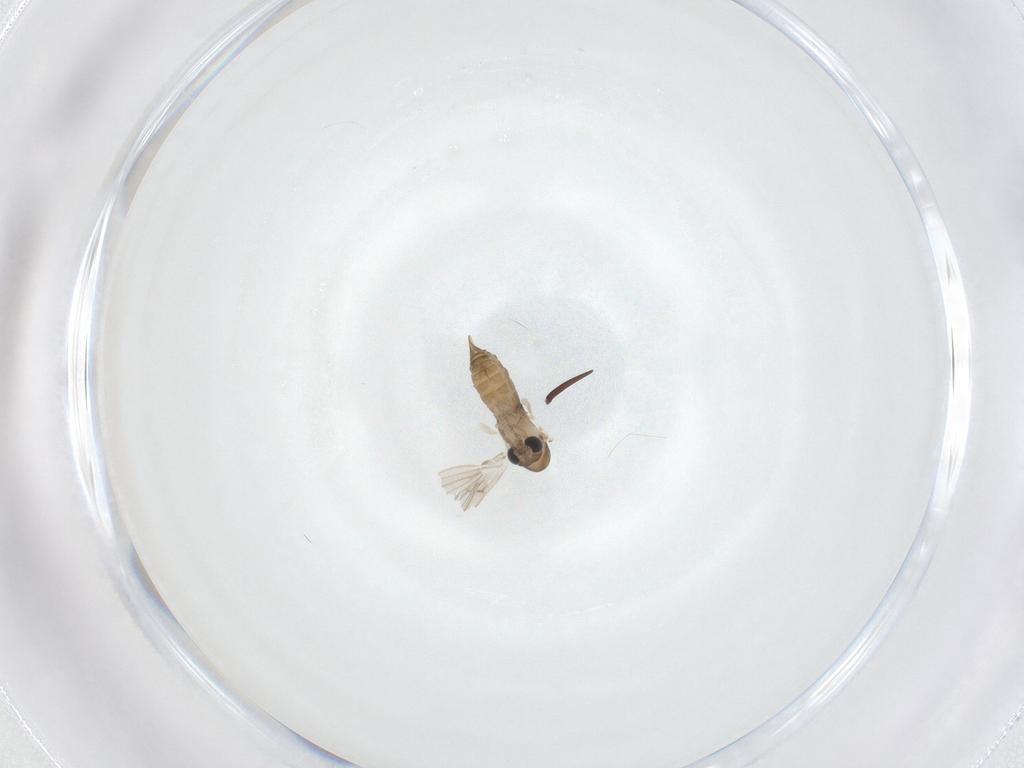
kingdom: Animalia
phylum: Arthropoda
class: Insecta
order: Diptera
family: Psychodidae
